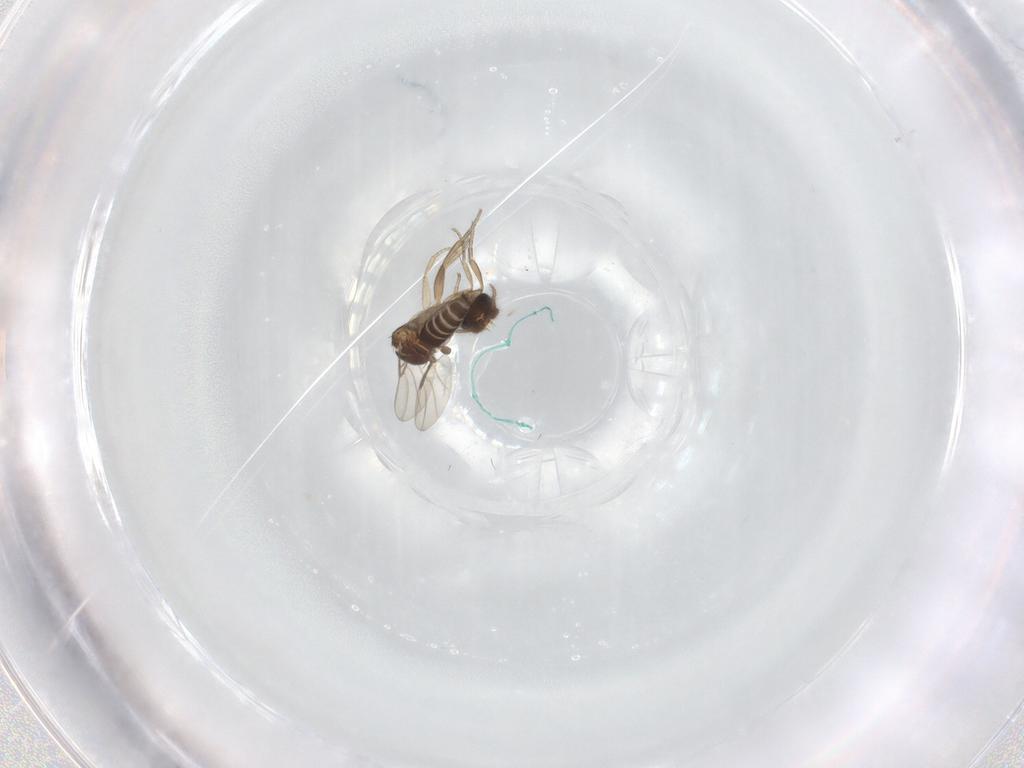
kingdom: Animalia
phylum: Arthropoda
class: Insecta
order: Diptera
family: Phoridae
